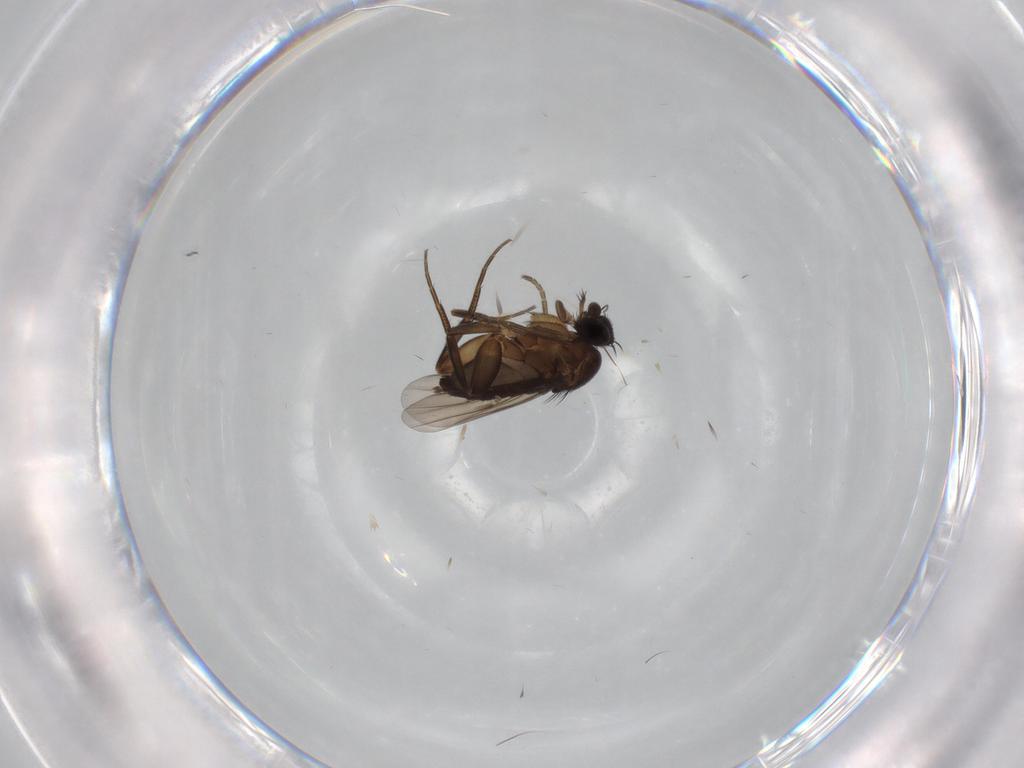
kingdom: Animalia
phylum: Arthropoda
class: Insecta
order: Diptera
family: Phoridae
